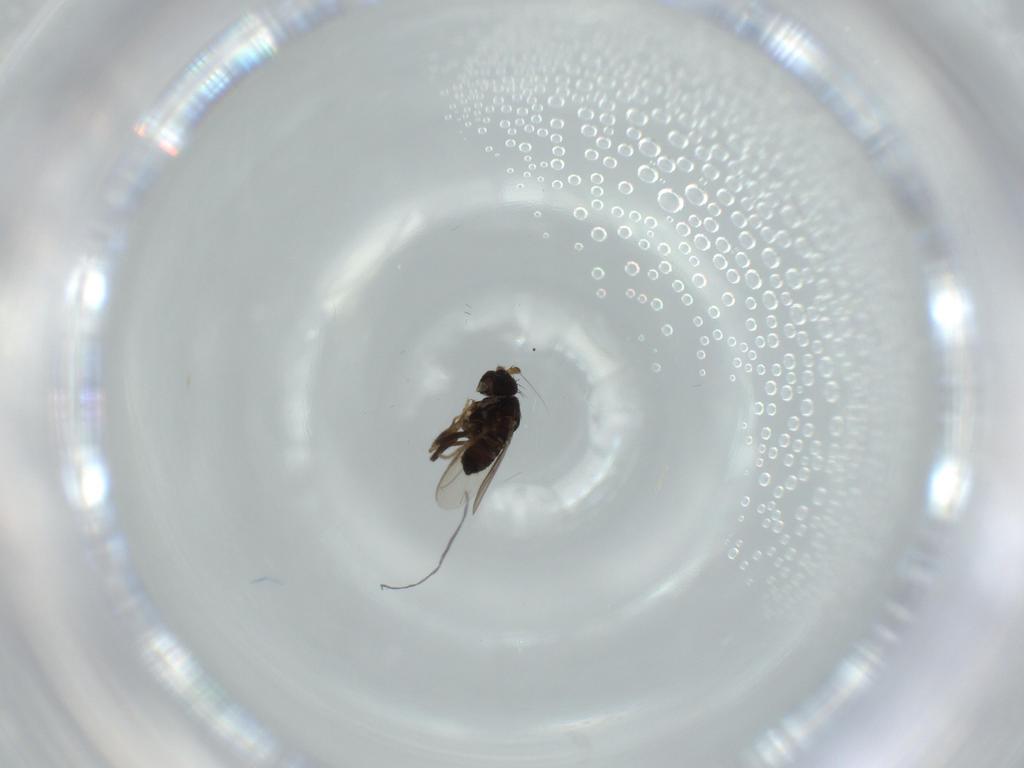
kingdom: Animalia
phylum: Arthropoda
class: Insecta
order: Diptera
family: Sphaeroceridae
